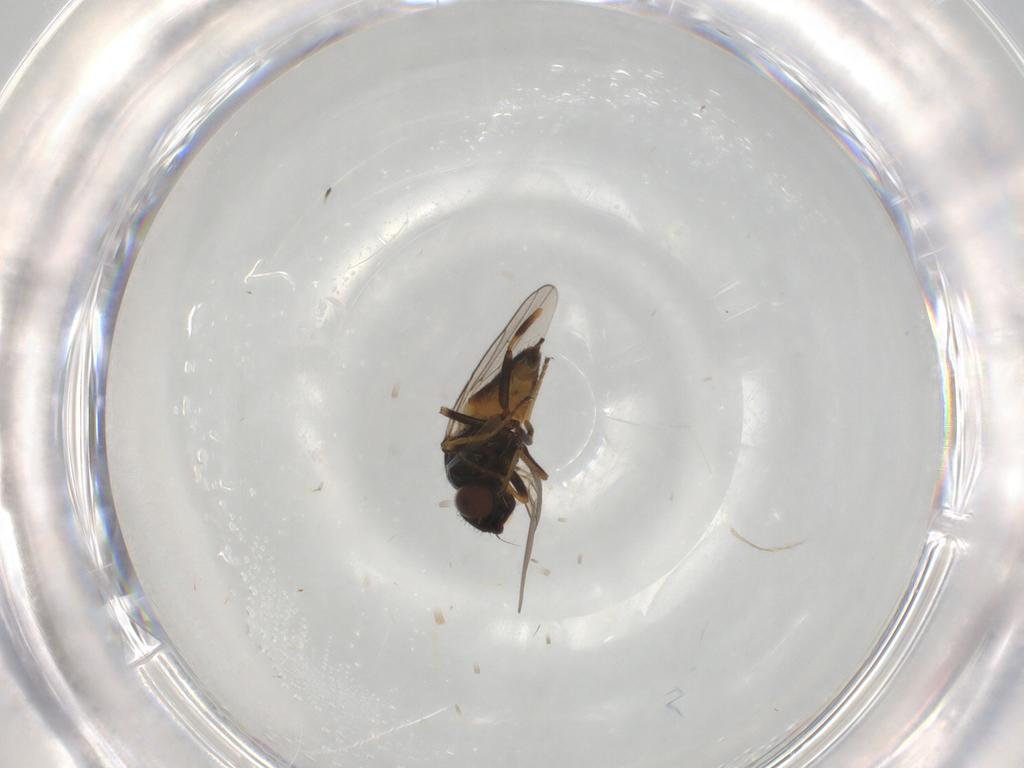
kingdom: Animalia
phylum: Arthropoda
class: Insecta
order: Diptera
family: Chloropidae
